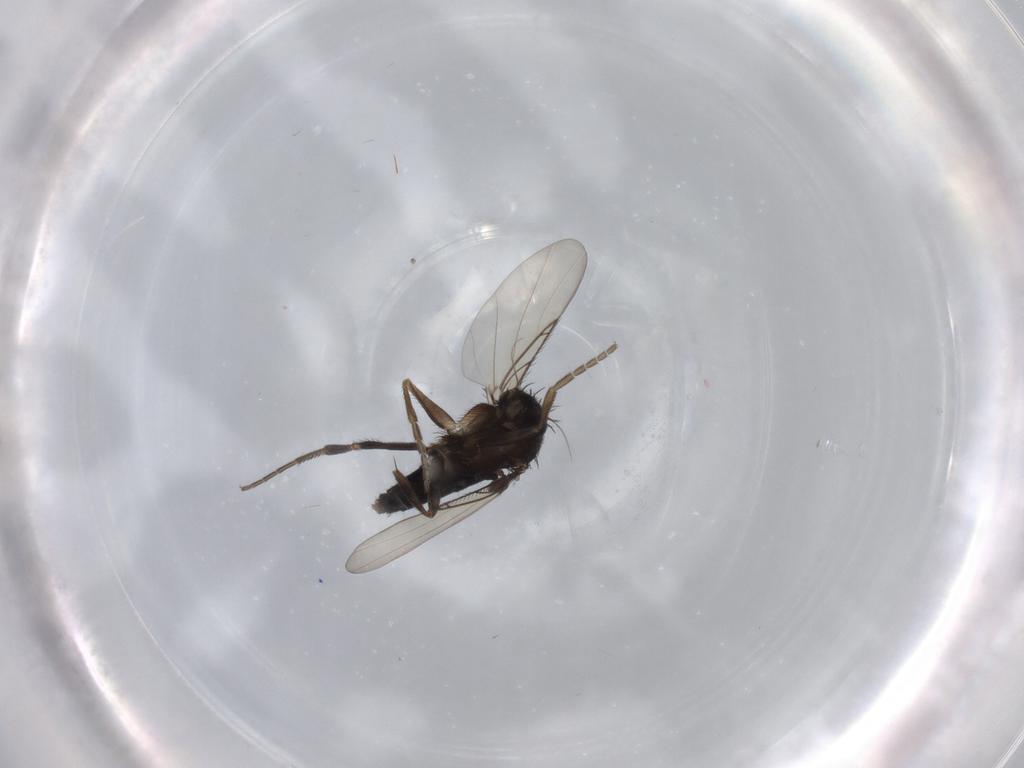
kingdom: Animalia
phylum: Arthropoda
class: Insecta
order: Diptera
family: Phoridae
